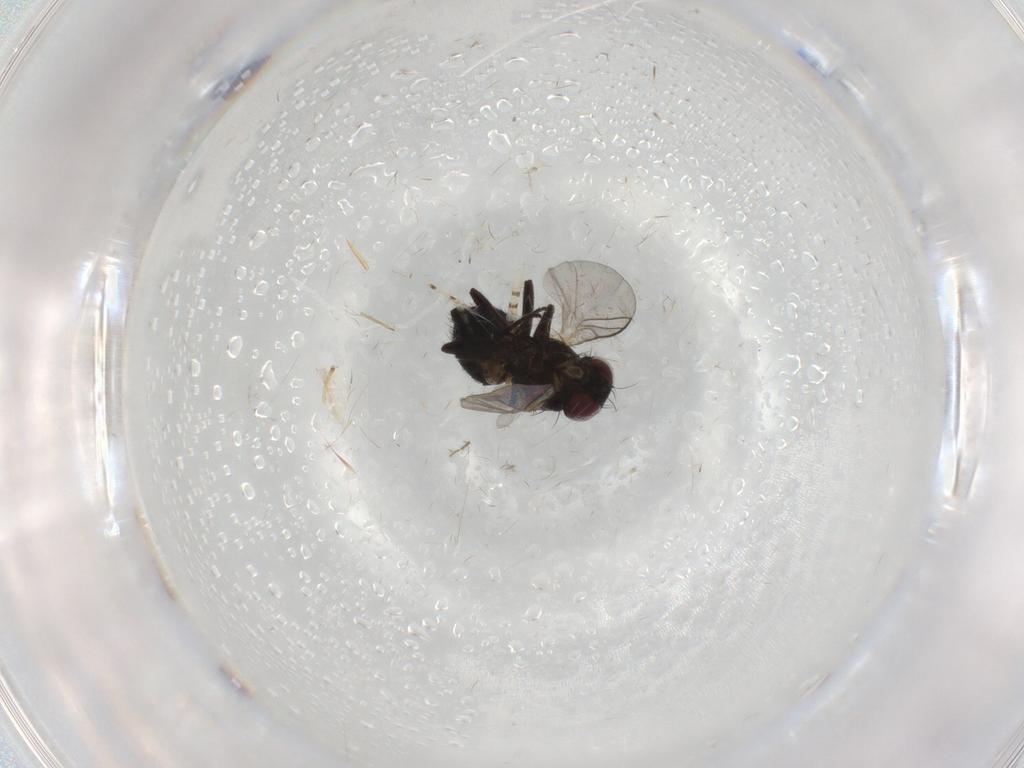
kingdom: Animalia
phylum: Arthropoda
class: Insecta
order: Diptera
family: Chaoboridae
